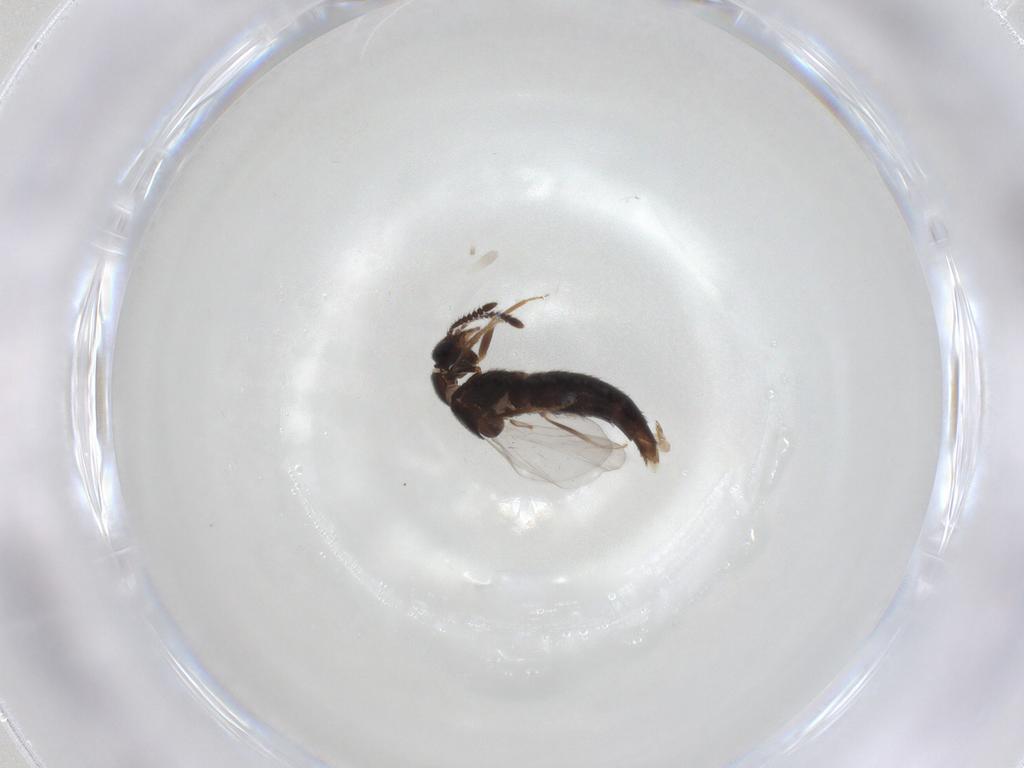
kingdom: Animalia
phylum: Arthropoda
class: Insecta
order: Coleoptera
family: Staphylinidae
